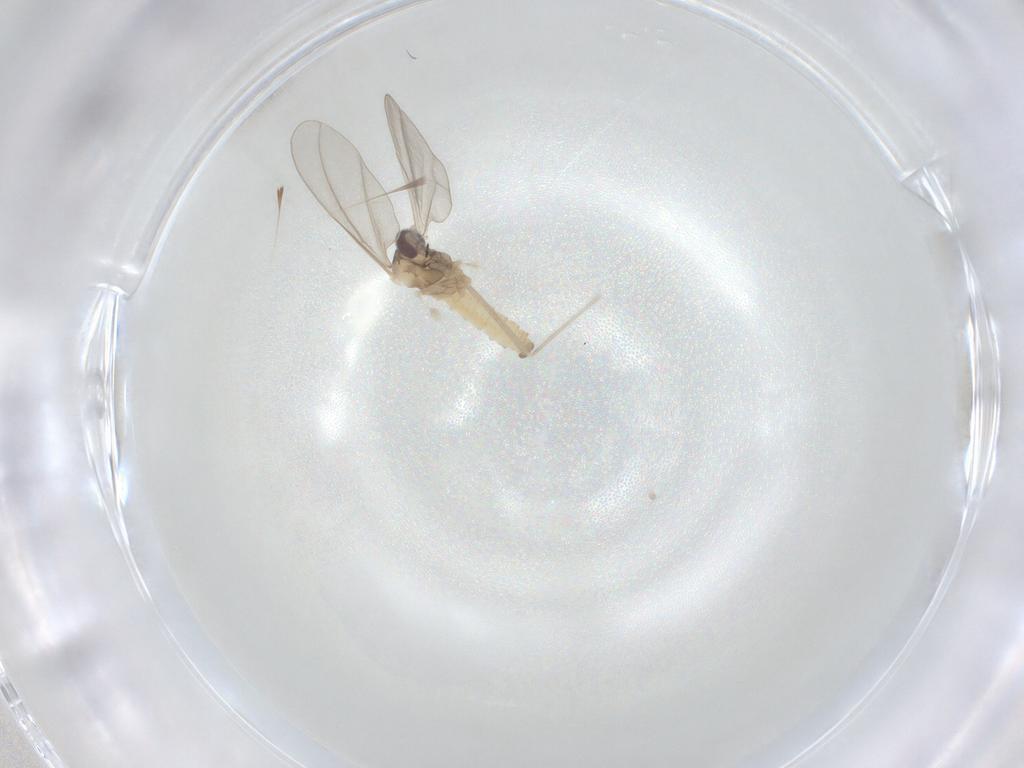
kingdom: Animalia
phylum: Arthropoda
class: Insecta
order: Diptera
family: Cecidomyiidae
